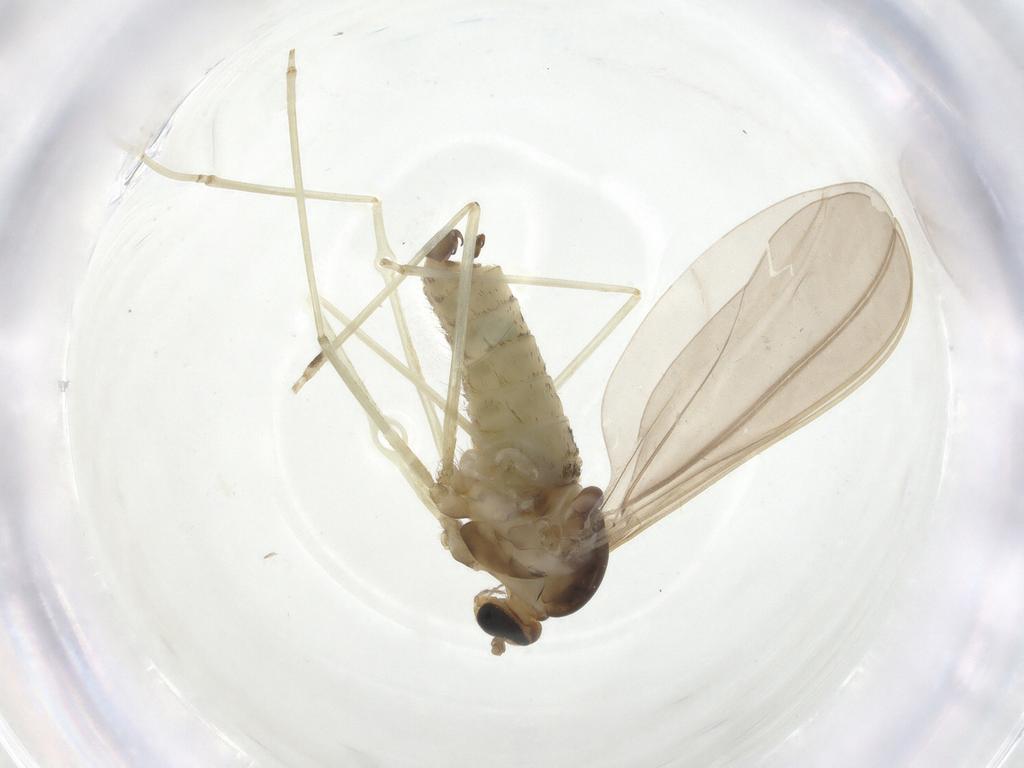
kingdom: Animalia
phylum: Arthropoda
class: Insecta
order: Diptera
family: Cecidomyiidae
